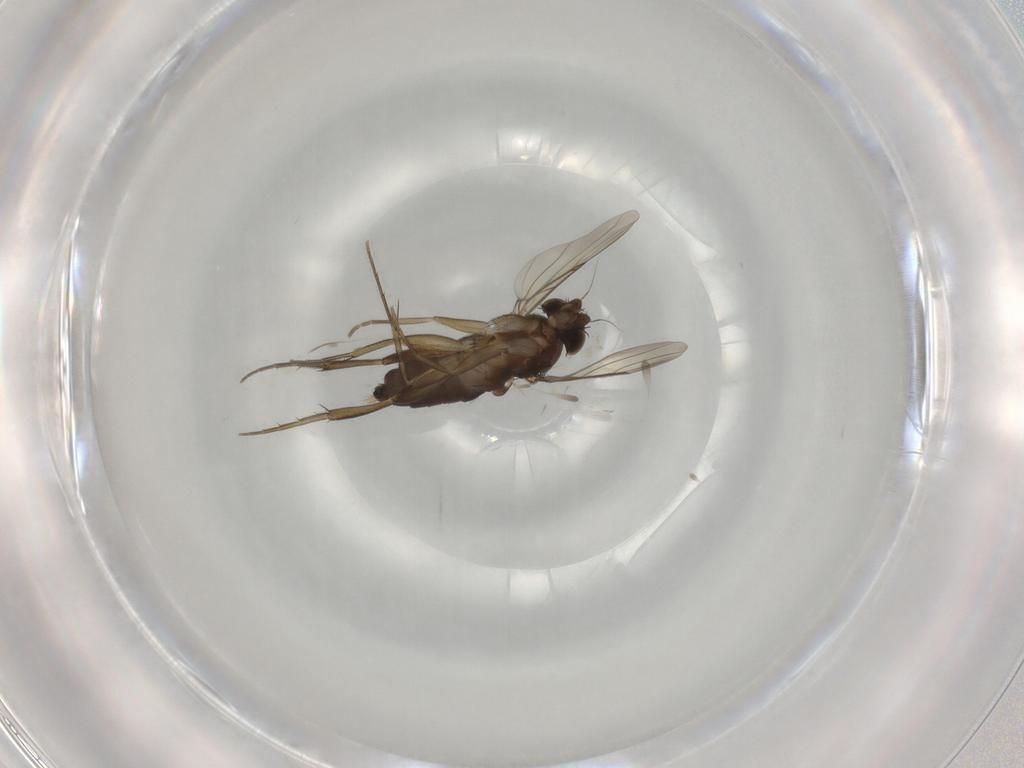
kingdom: Animalia
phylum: Arthropoda
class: Insecta
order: Diptera
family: Phoridae
